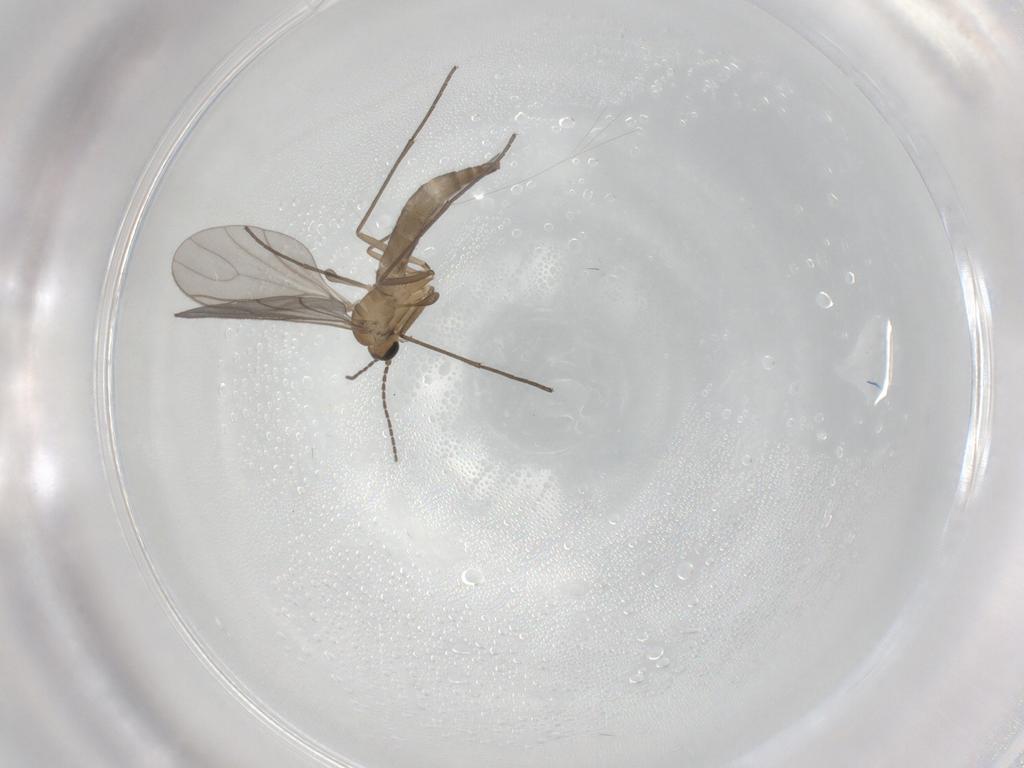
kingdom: Animalia
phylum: Arthropoda
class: Insecta
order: Diptera
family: Sciaridae
